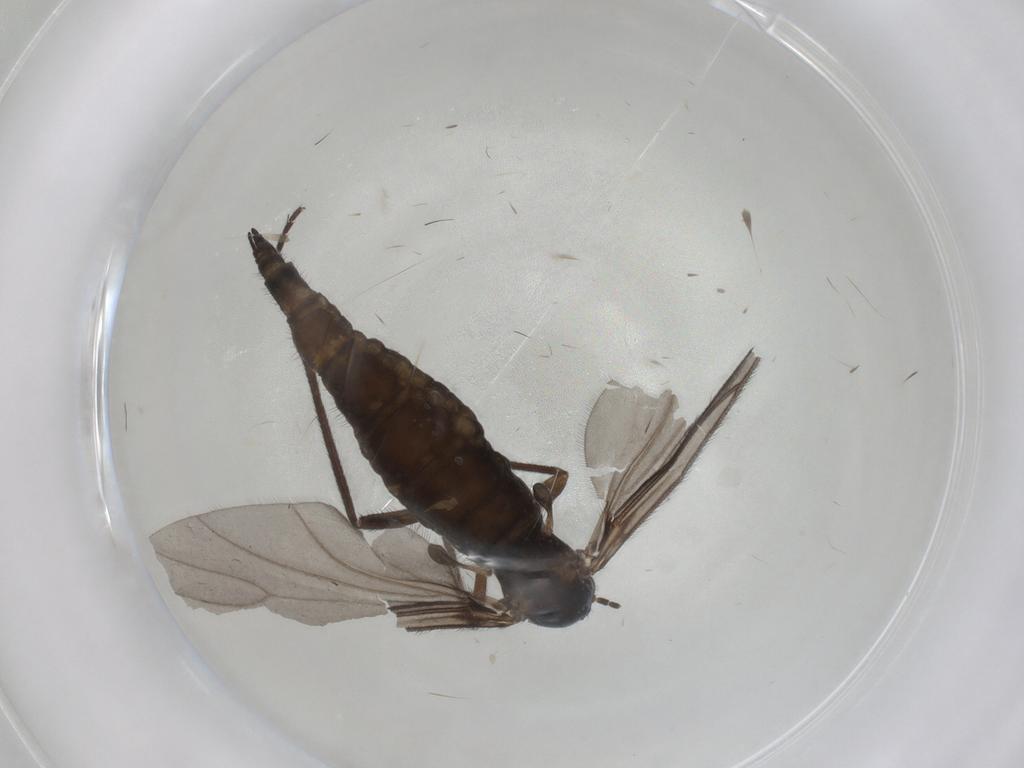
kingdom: Animalia
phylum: Arthropoda
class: Insecta
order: Diptera
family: Sciaridae
